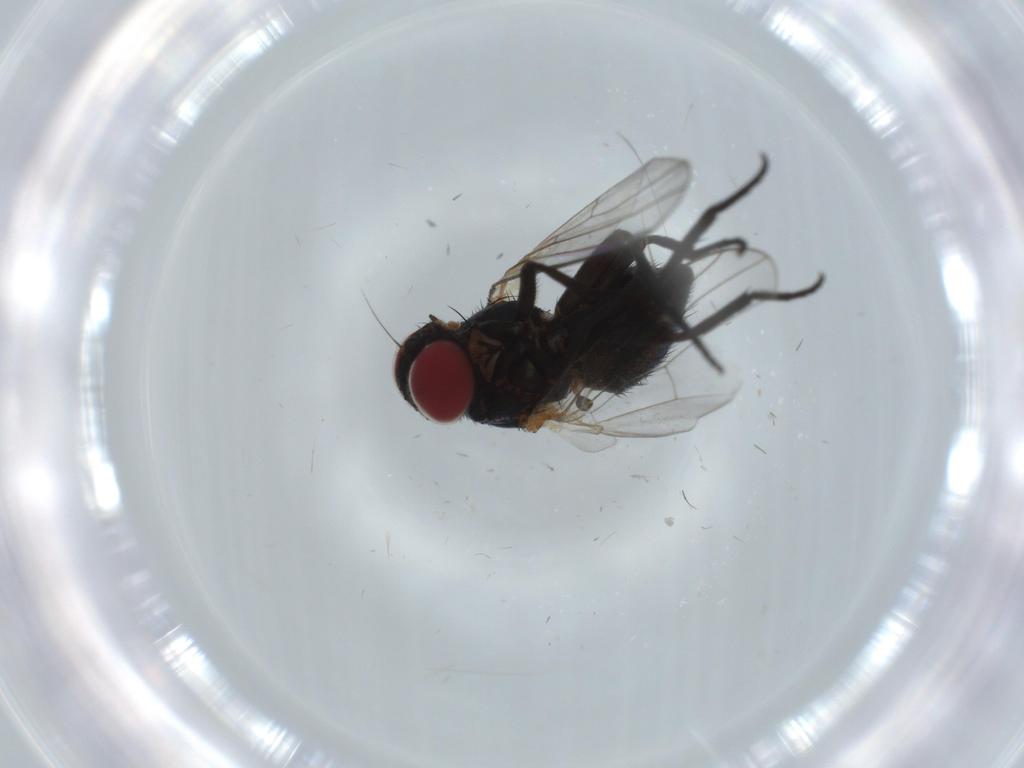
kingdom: Animalia
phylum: Arthropoda
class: Insecta
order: Diptera
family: Agromyzidae
